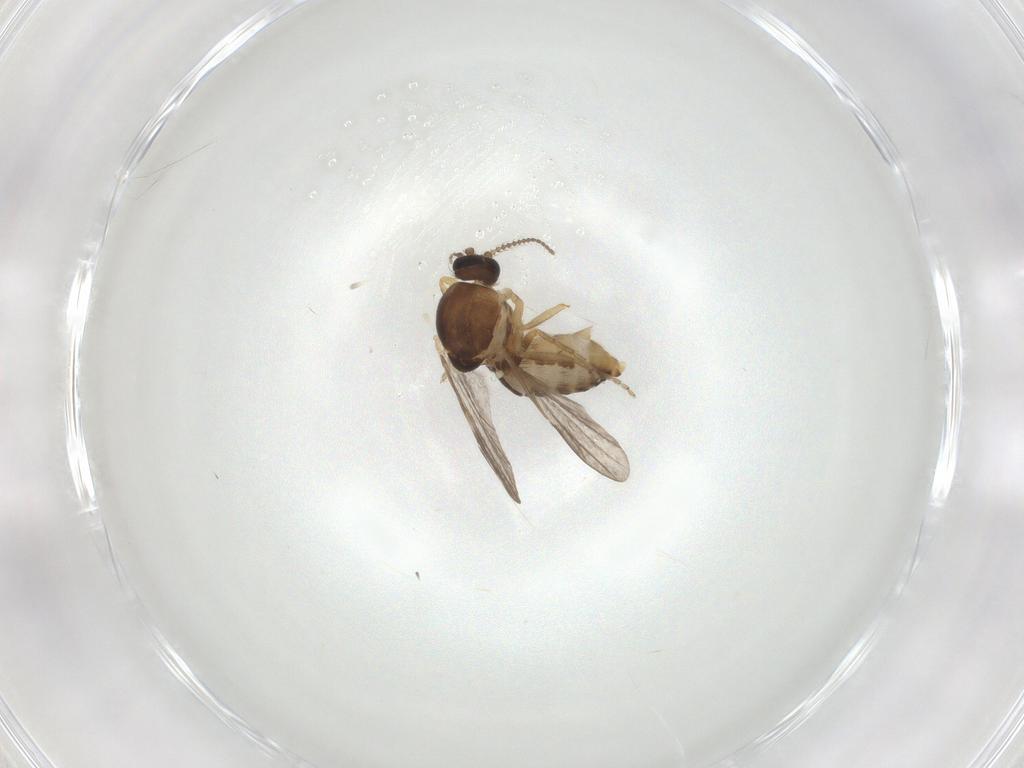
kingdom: Animalia
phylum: Arthropoda
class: Insecta
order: Diptera
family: Ceratopogonidae
